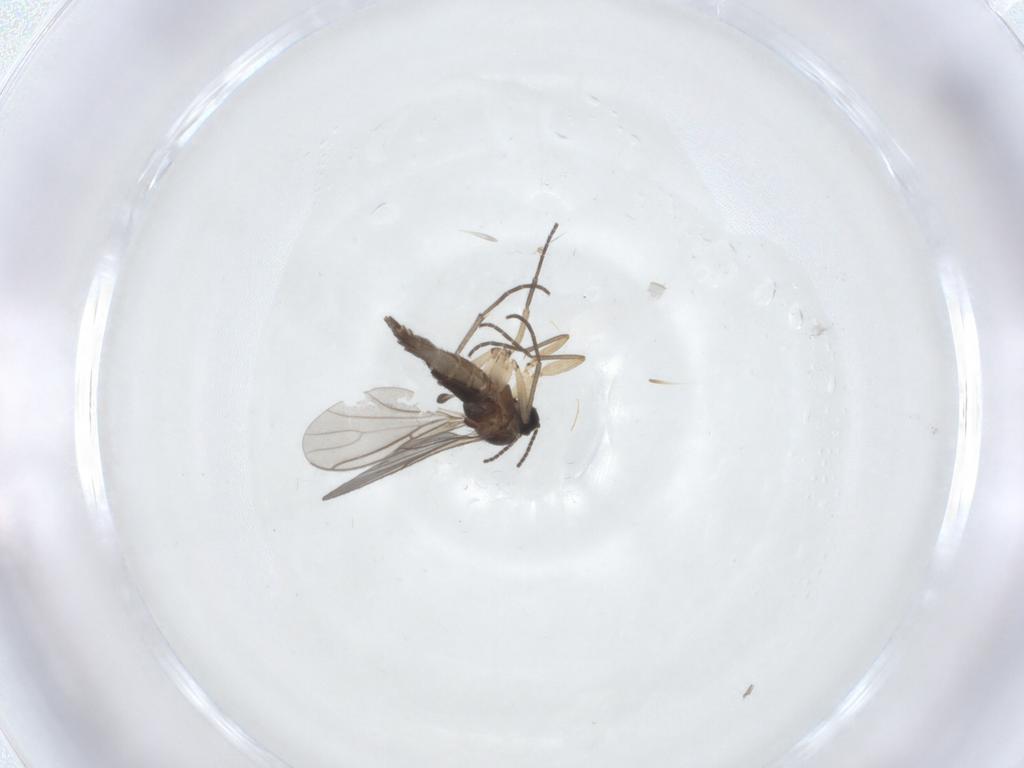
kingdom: Animalia
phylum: Arthropoda
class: Insecta
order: Diptera
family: Sciaridae
